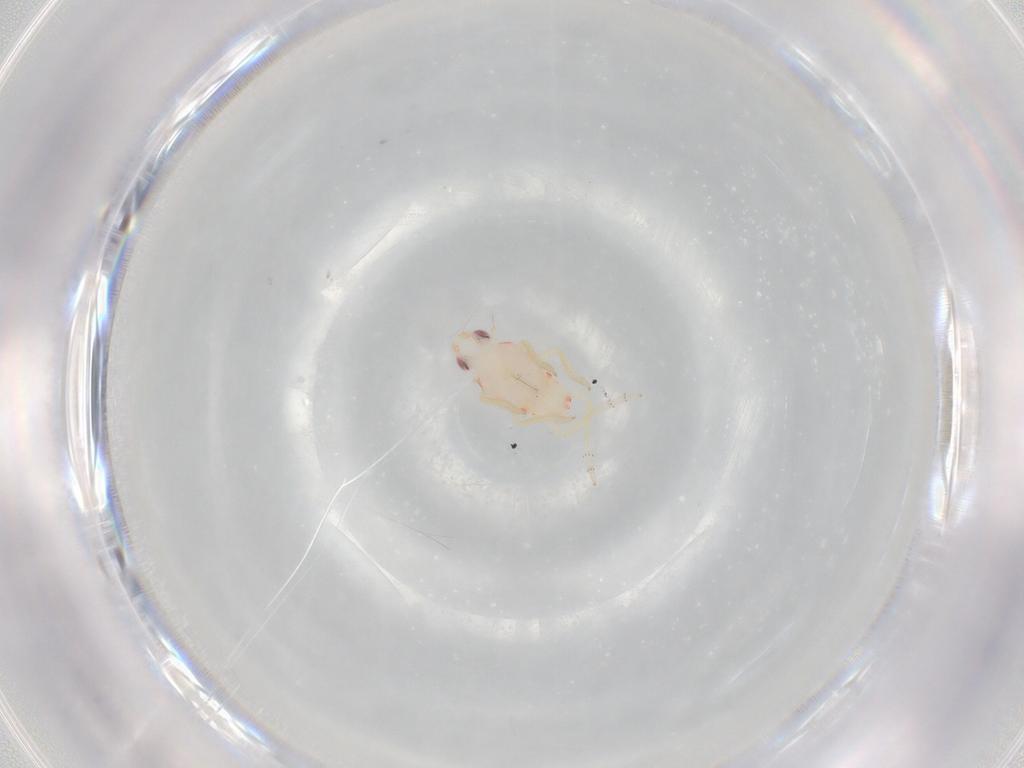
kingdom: Animalia
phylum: Arthropoda
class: Insecta
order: Hemiptera
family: Tropiduchidae
